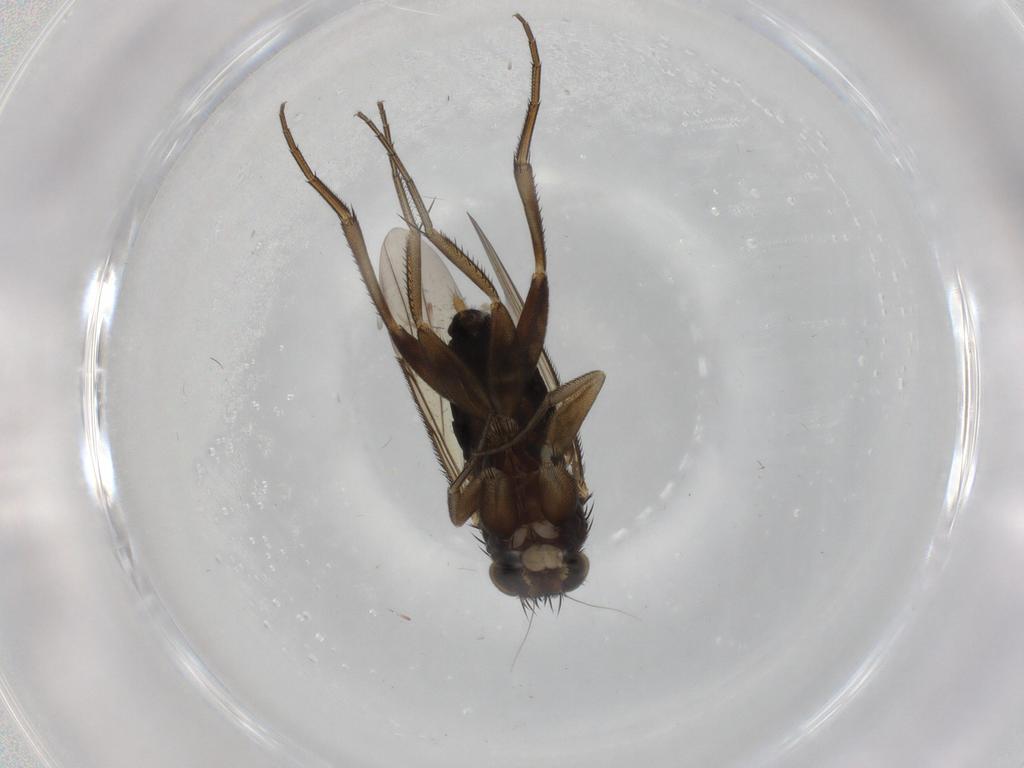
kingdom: Animalia
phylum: Arthropoda
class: Insecta
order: Diptera
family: Phoridae
